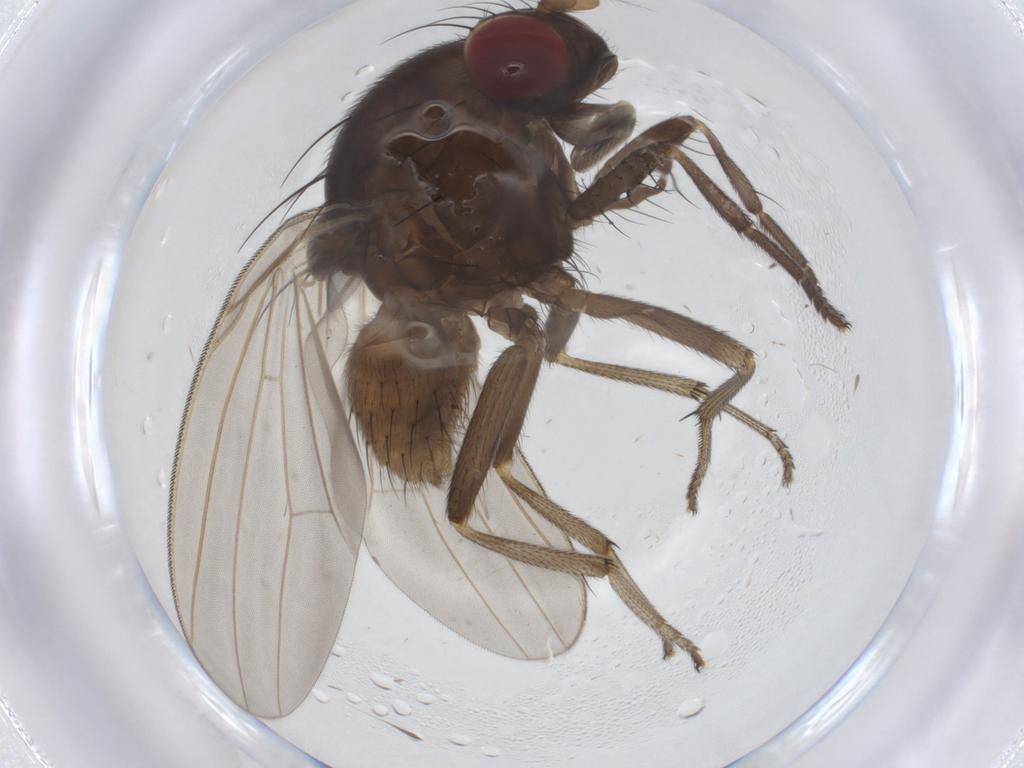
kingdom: Animalia
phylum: Arthropoda
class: Insecta
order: Diptera
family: Lauxaniidae
